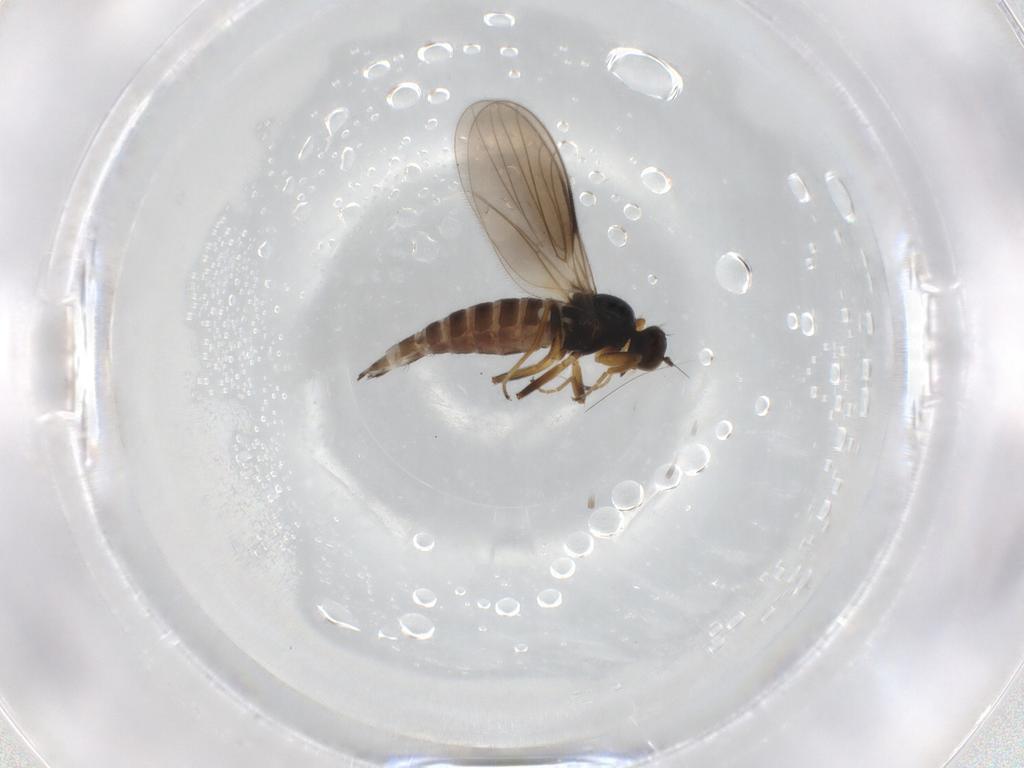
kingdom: Animalia
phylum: Arthropoda
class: Insecta
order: Diptera
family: Hybotidae
